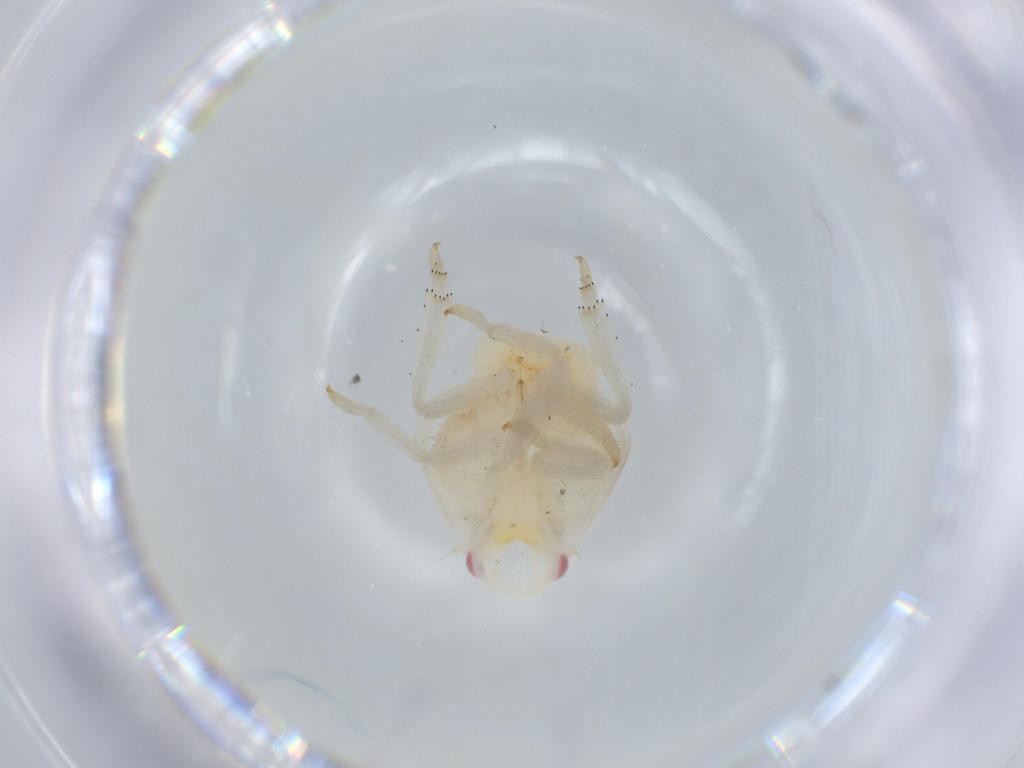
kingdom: Animalia
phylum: Arthropoda
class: Insecta
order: Hemiptera
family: Flatidae
